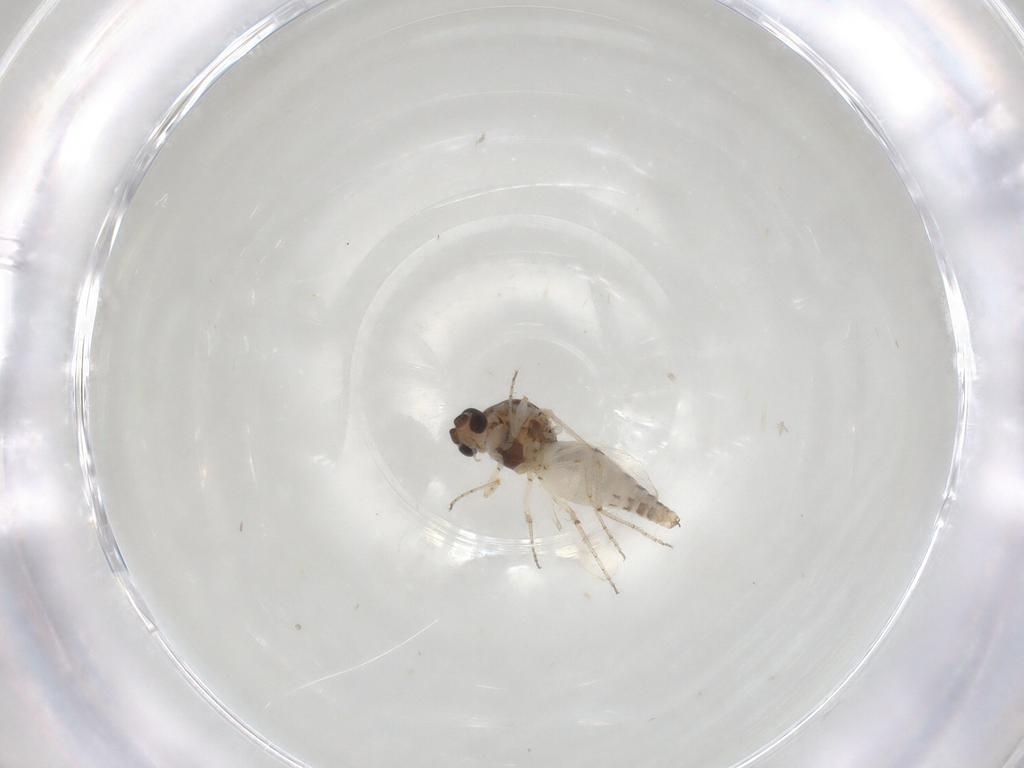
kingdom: Animalia
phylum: Arthropoda
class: Insecta
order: Diptera
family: Ceratopogonidae
